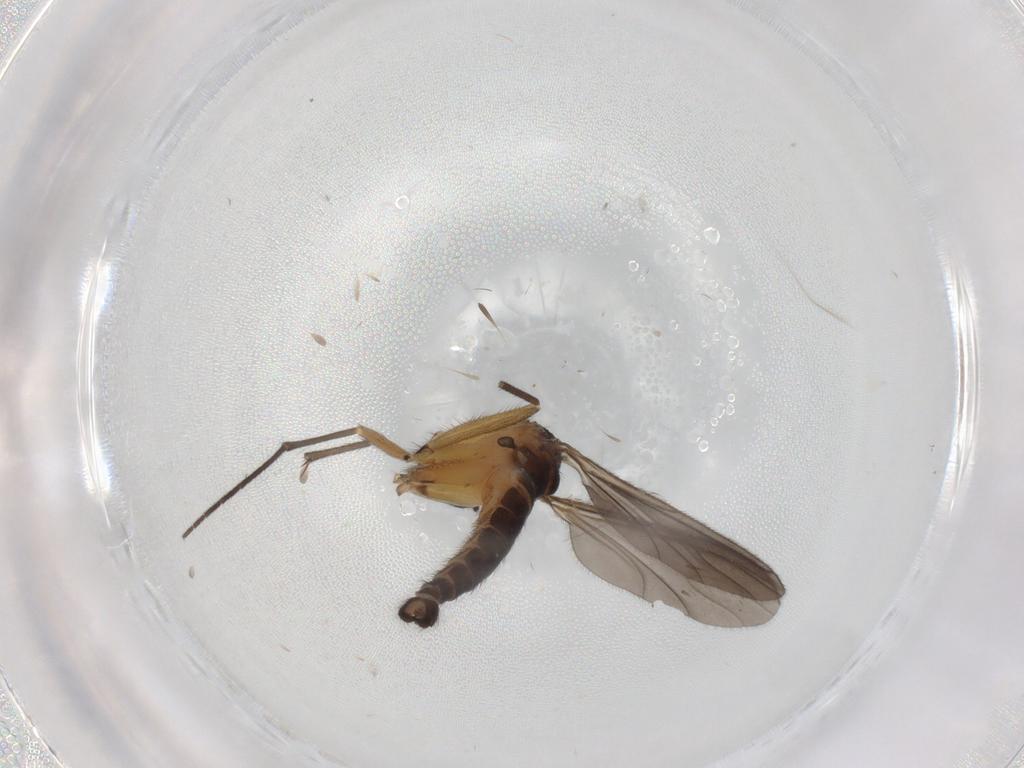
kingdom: Animalia
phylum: Arthropoda
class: Insecta
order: Diptera
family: Sciaridae
